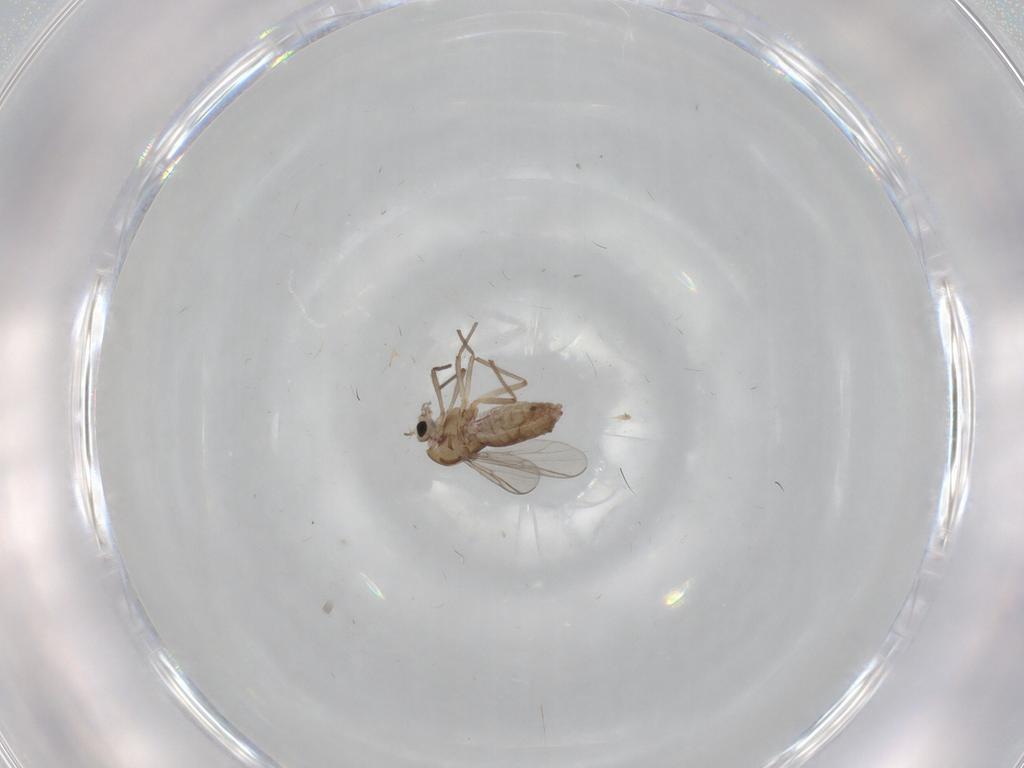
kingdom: Animalia
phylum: Arthropoda
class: Insecta
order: Diptera
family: Chironomidae
